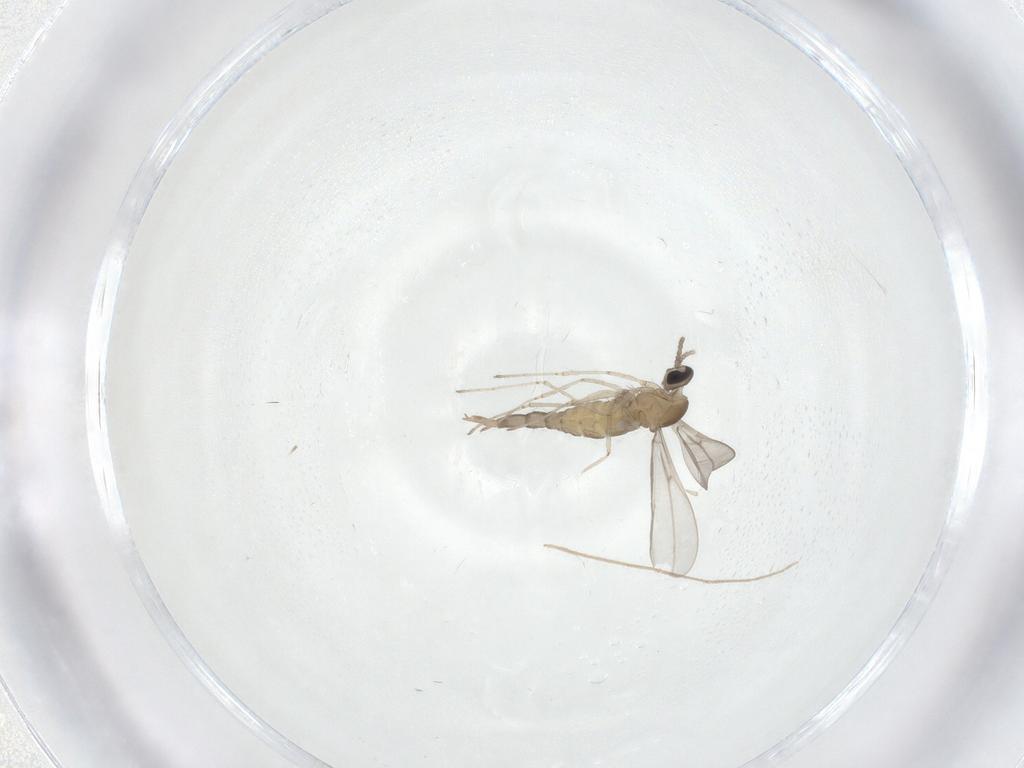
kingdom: Animalia
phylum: Arthropoda
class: Insecta
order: Diptera
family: Cecidomyiidae
